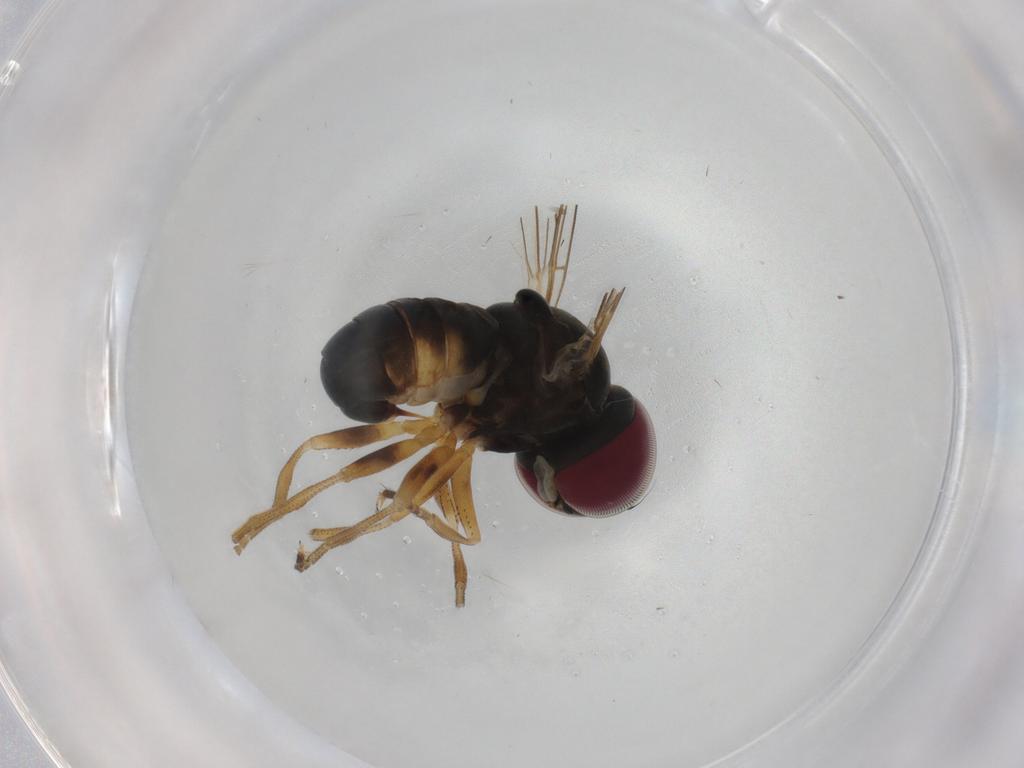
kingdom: Animalia
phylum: Arthropoda
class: Insecta
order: Diptera
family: Pipunculidae
